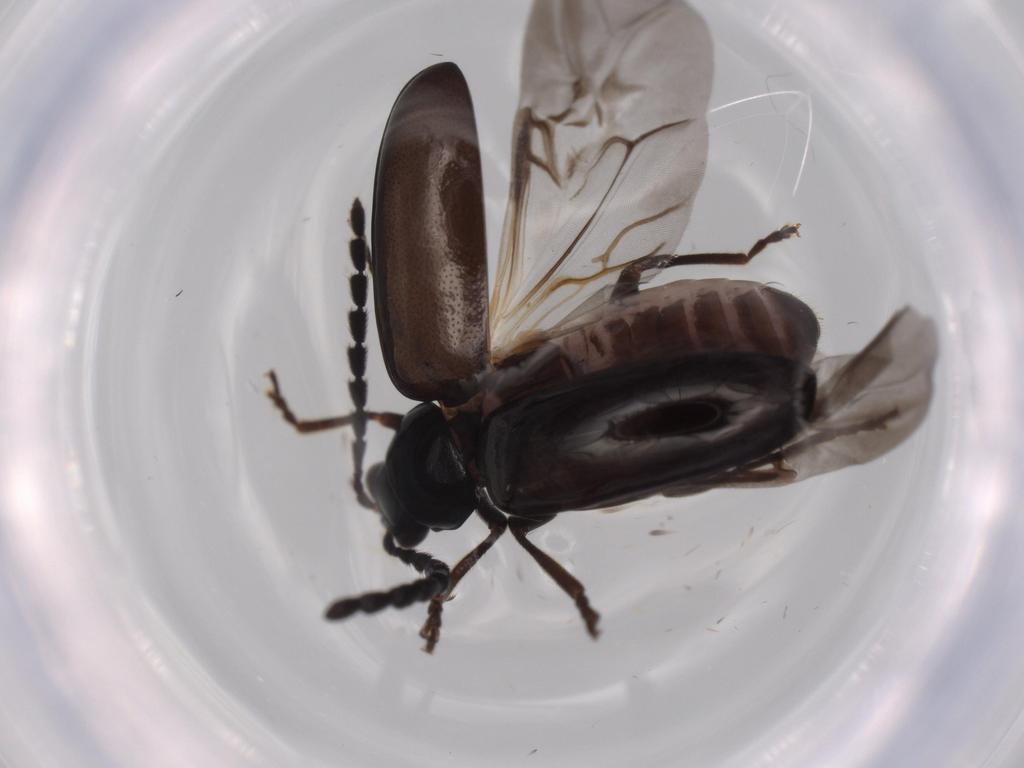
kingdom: Animalia
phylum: Arthropoda
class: Insecta
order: Coleoptera
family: Chrysomelidae
